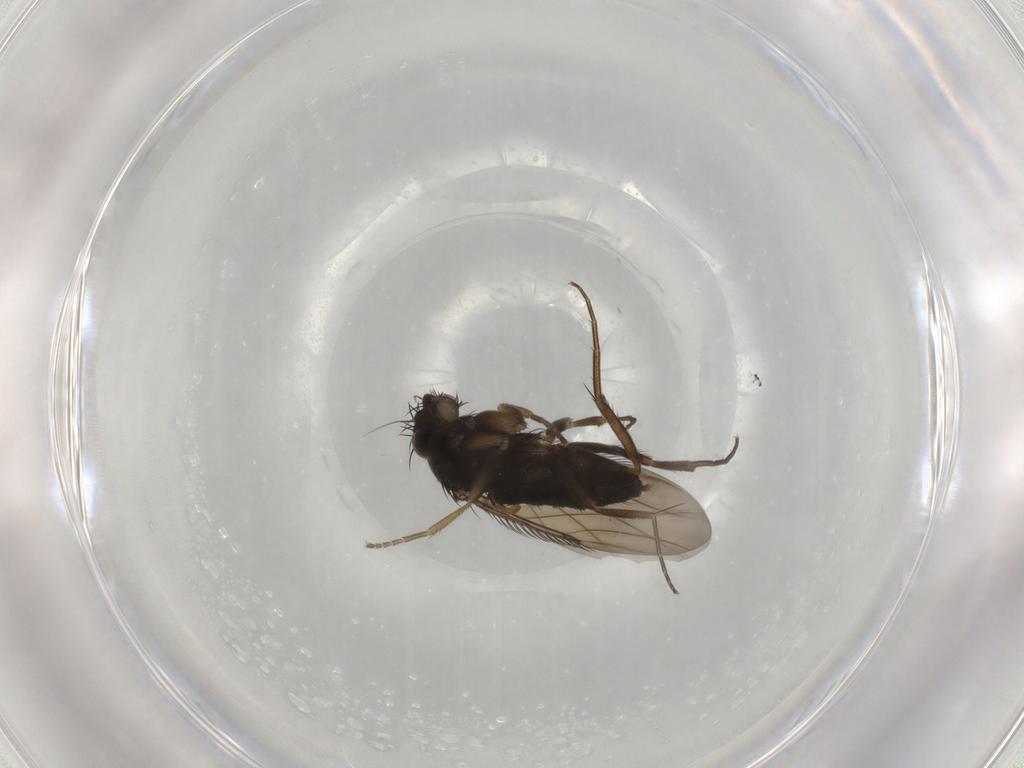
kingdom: Animalia
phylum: Arthropoda
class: Insecta
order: Diptera
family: Phoridae
